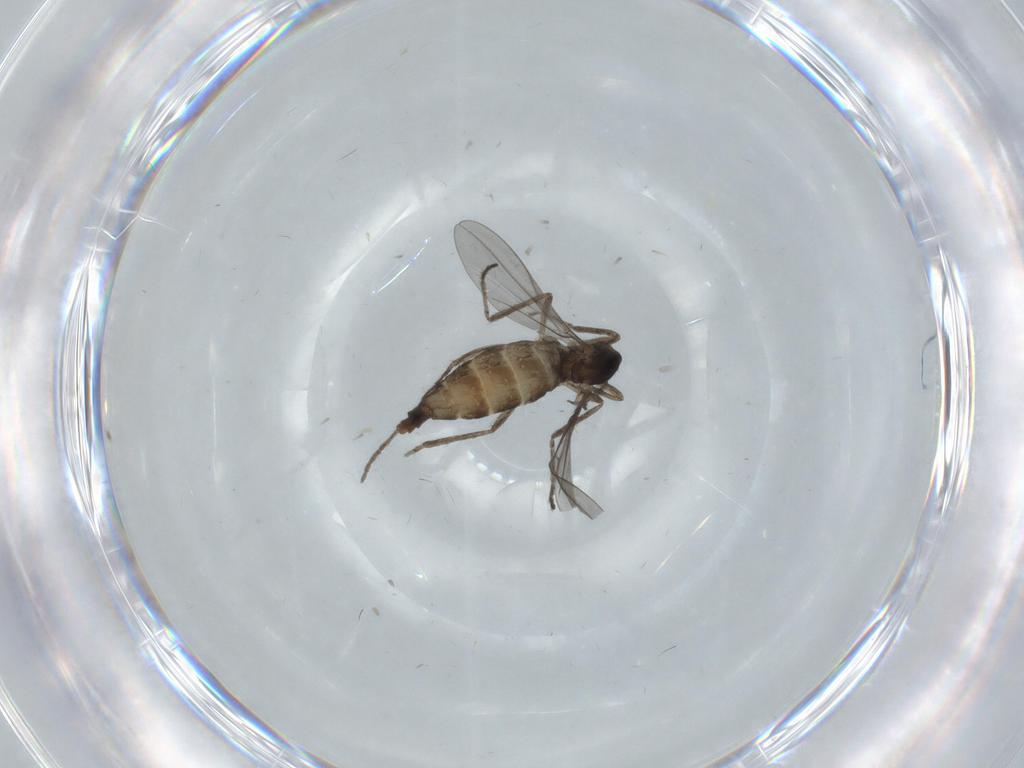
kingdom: Animalia
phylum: Arthropoda
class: Insecta
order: Diptera
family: Cecidomyiidae
